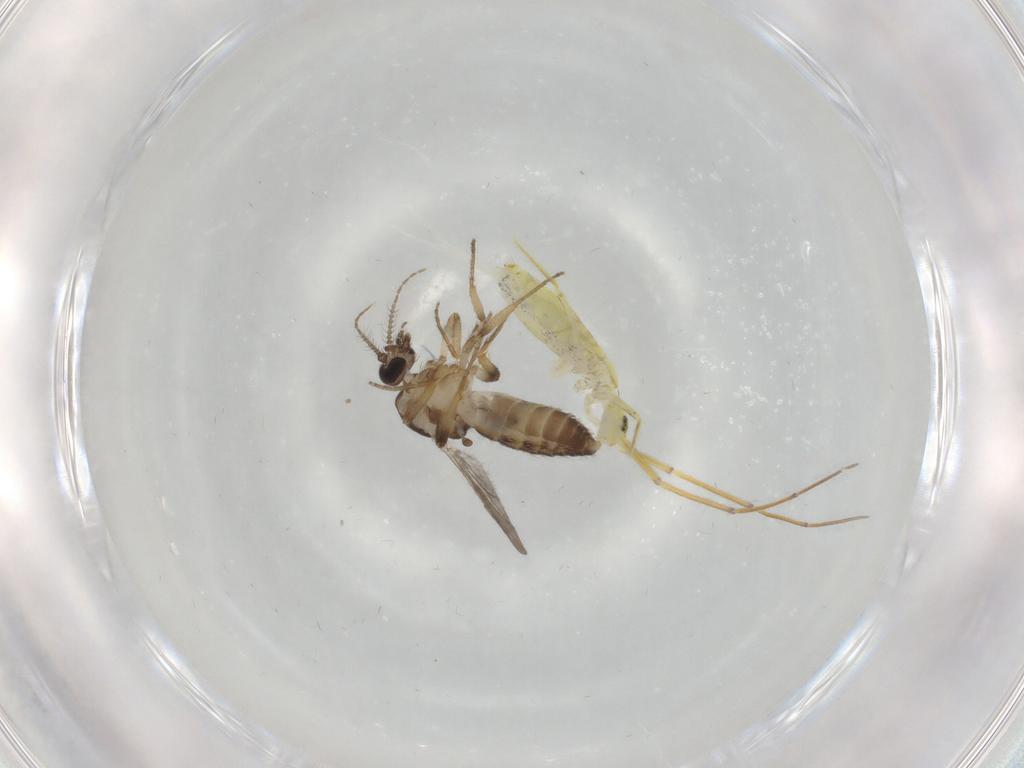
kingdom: Animalia
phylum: Arthropoda
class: Insecta
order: Diptera
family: Ceratopogonidae
